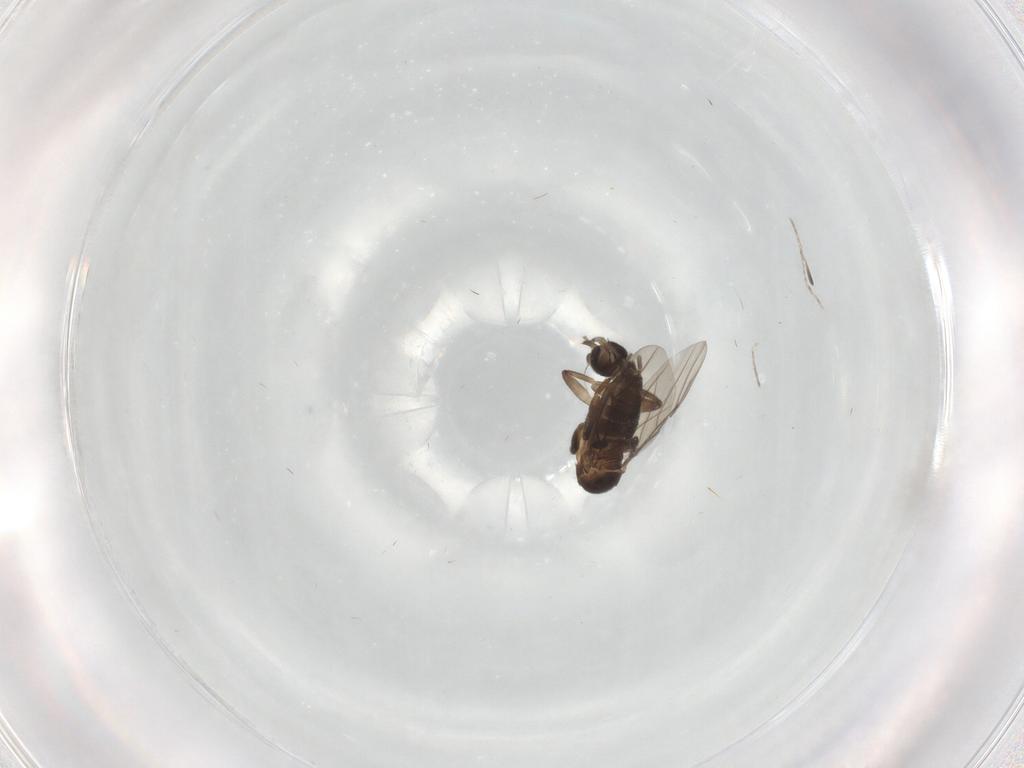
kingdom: Animalia
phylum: Arthropoda
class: Insecta
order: Diptera
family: Phoridae
